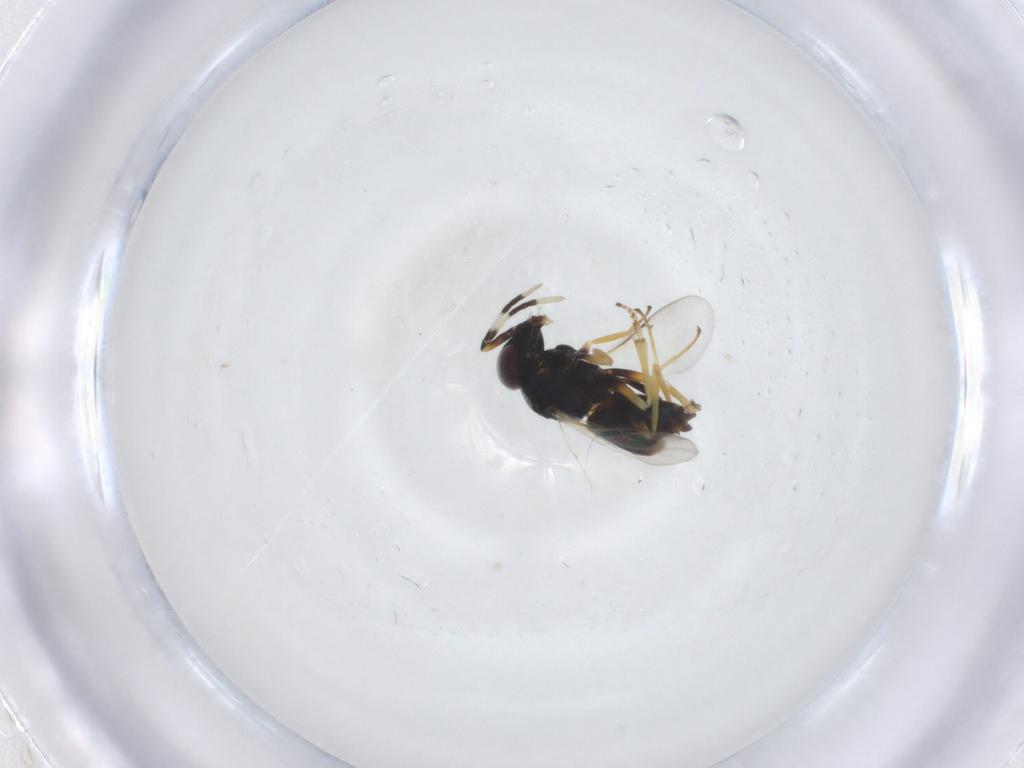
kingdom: Animalia
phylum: Arthropoda
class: Insecta
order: Hymenoptera
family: Encyrtidae
